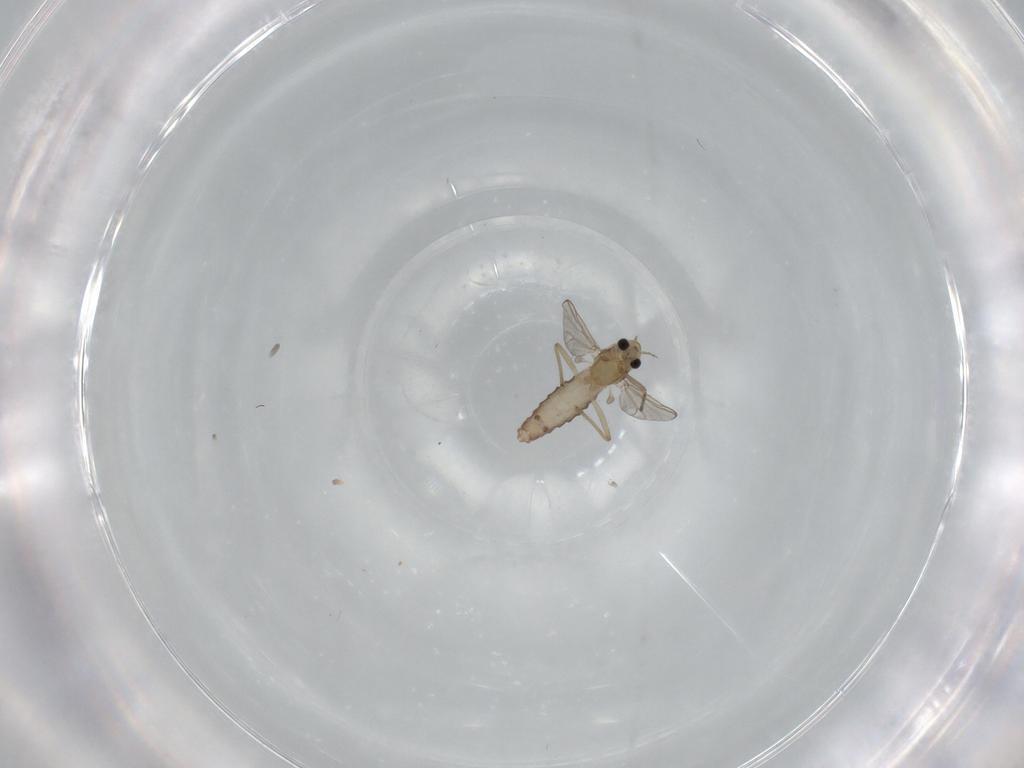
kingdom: Animalia
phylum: Arthropoda
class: Insecta
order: Diptera
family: Chironomidae
